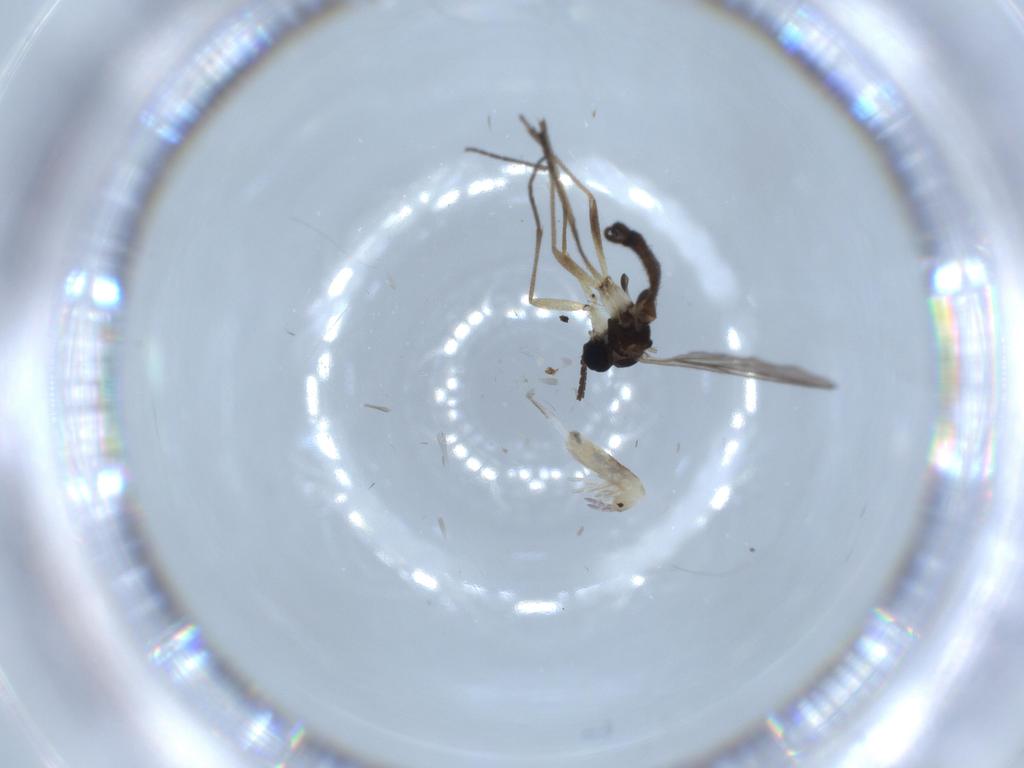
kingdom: Animalia
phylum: Arthropoda
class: Insecta
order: Diptera
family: Sciaridae
